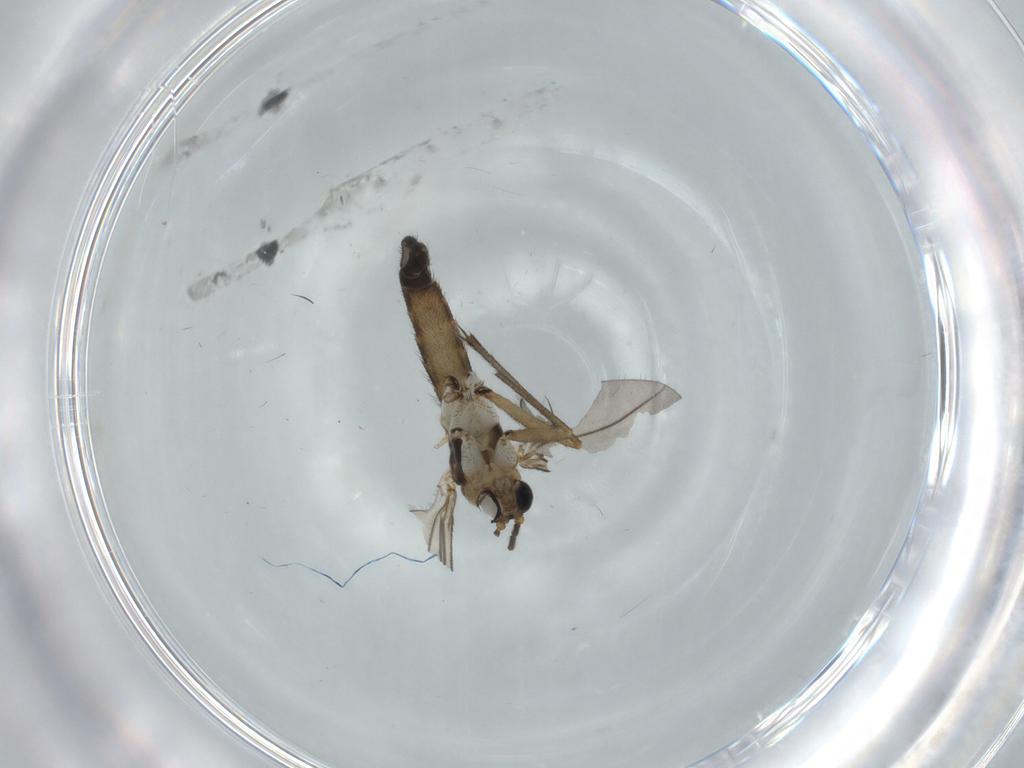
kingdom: Animalia
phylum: Arthropoda
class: Insecta
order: Diptera
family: Sciaridae
